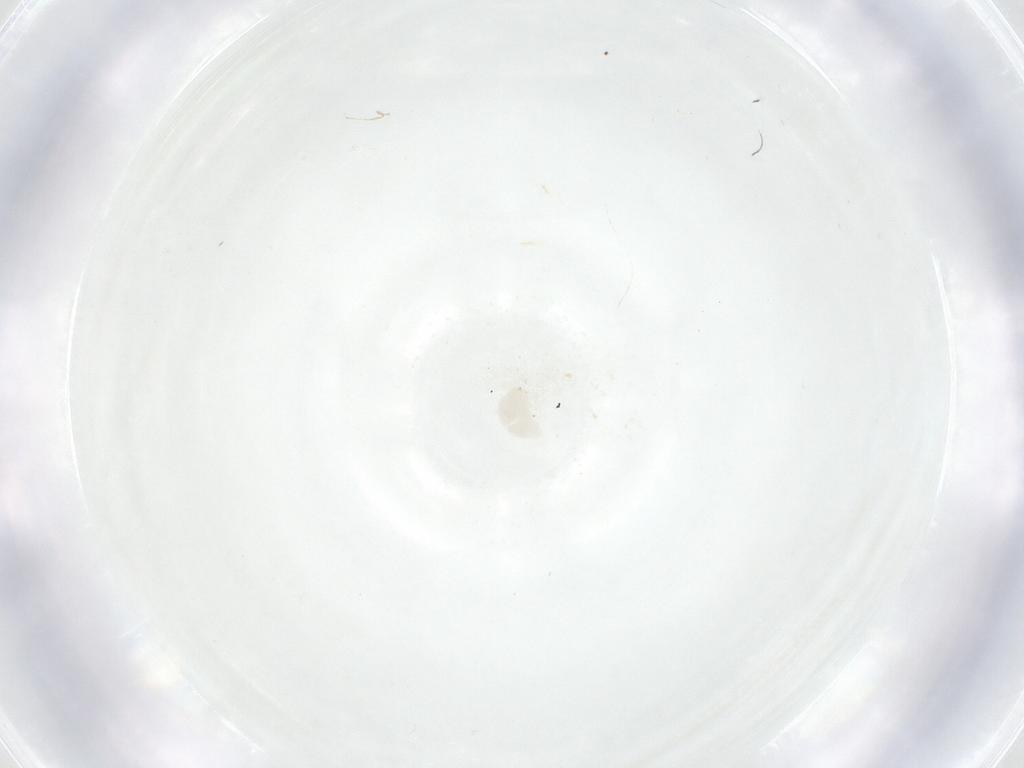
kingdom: Animalia
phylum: Arthropoda
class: Insecta
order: Diptera
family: Fergusoninidae
